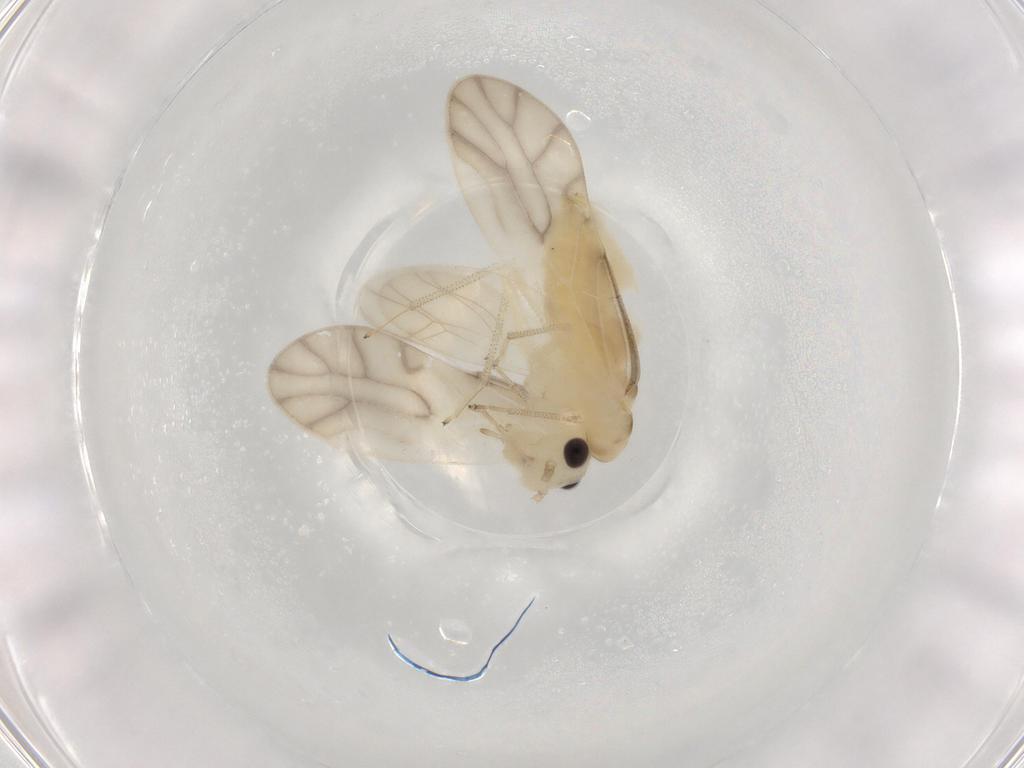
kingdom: Animalia
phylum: Arthropoda
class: Insecta
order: Psocodea
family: Caeciliusidae
